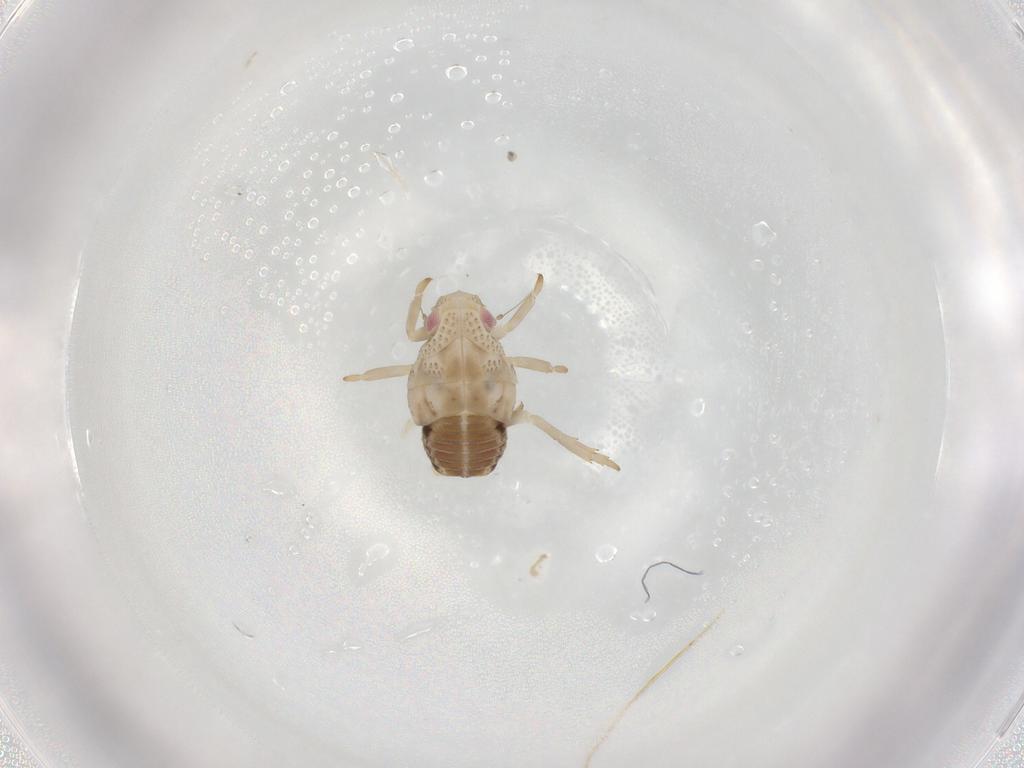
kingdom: Animalia
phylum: Arthropoda
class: Insecta
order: Hemiptera
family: Flatidae
